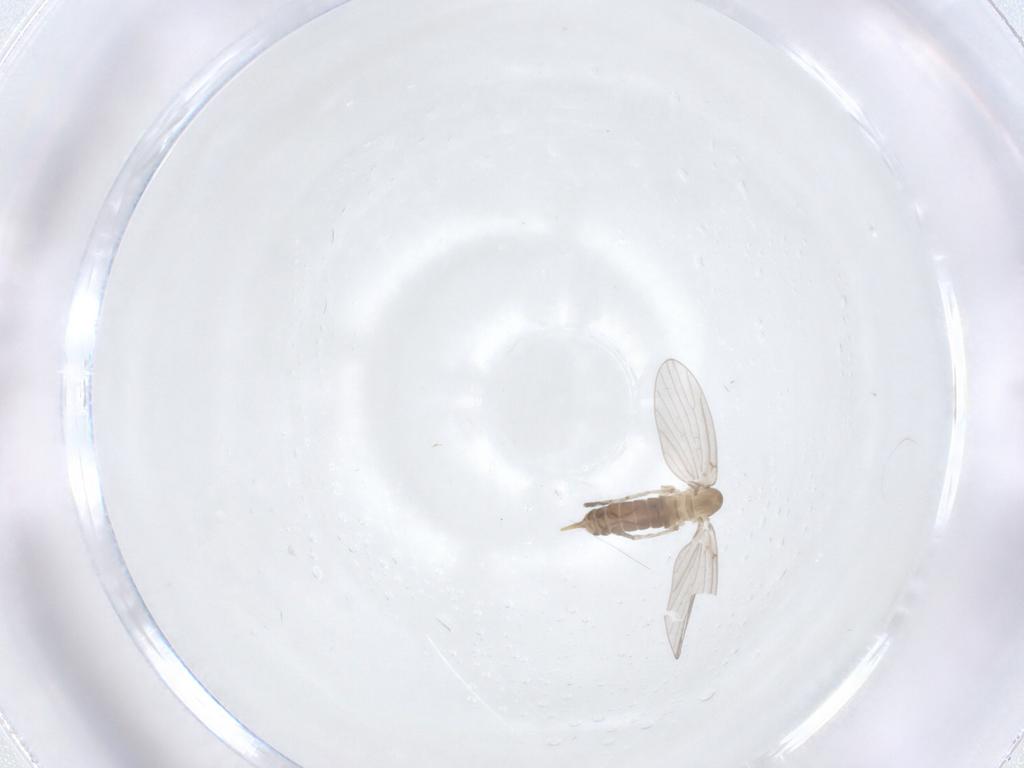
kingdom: Animalia
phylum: Arthropoda
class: Insecta
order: Diptera
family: Psychodidae
